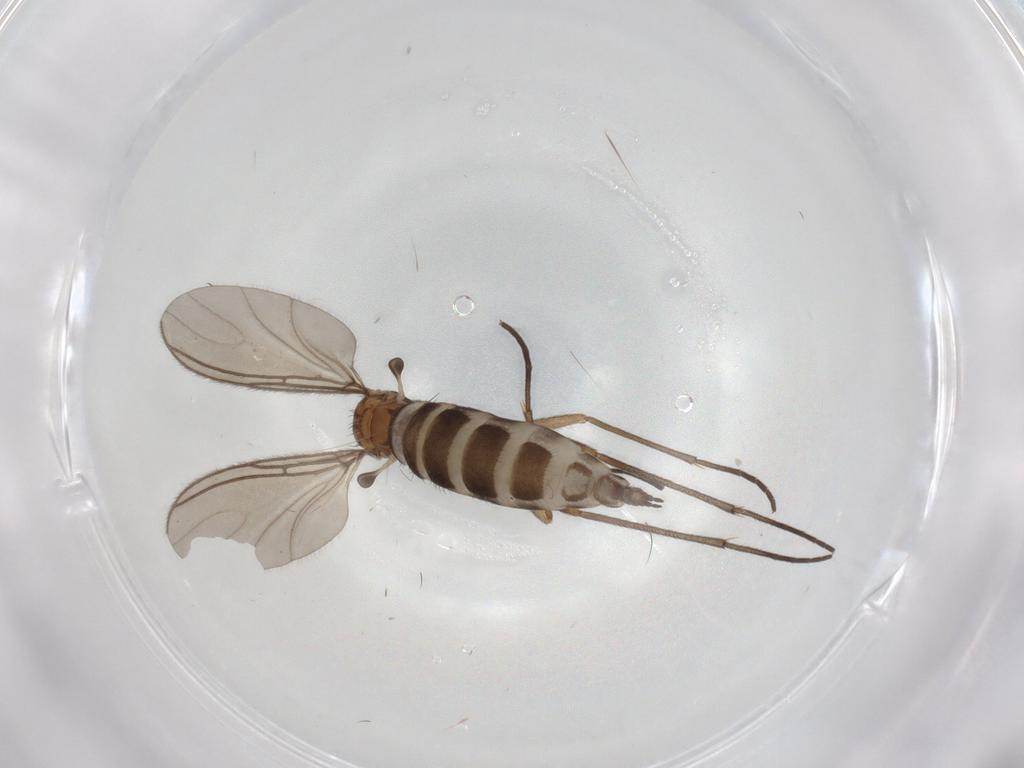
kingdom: Animalia
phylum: Arthropoda
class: Insecta
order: Diptera
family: Sciaridae
